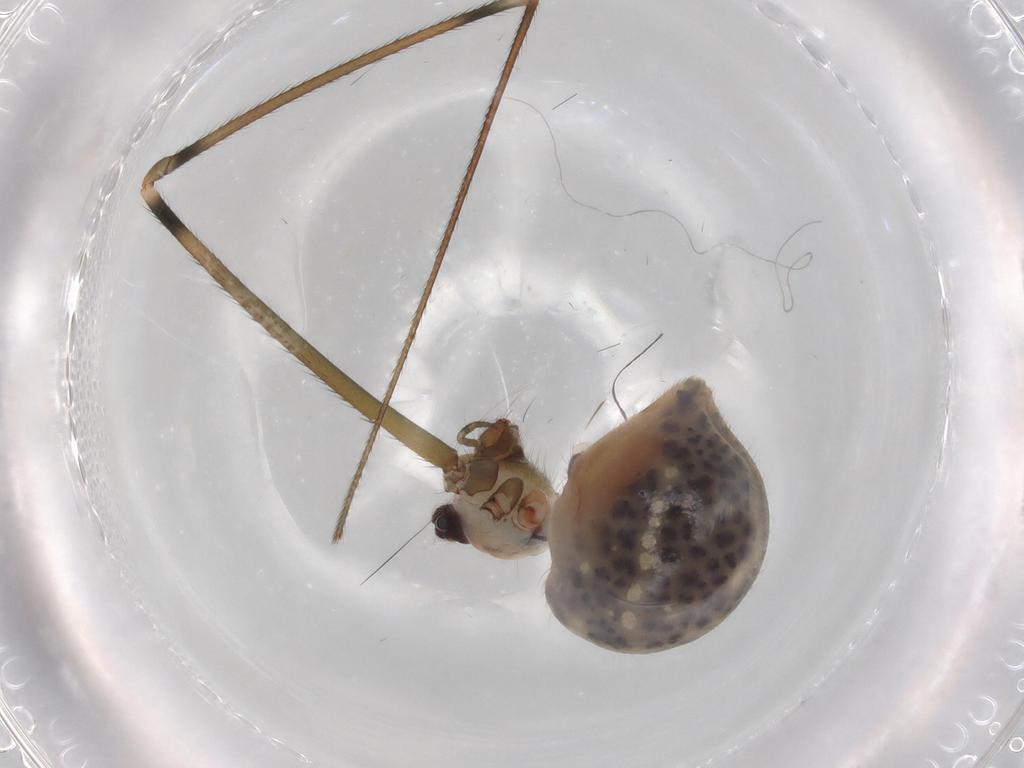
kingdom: Animalia
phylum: Arthropoda
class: Arachnida
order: Araneae
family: Pholcidae
